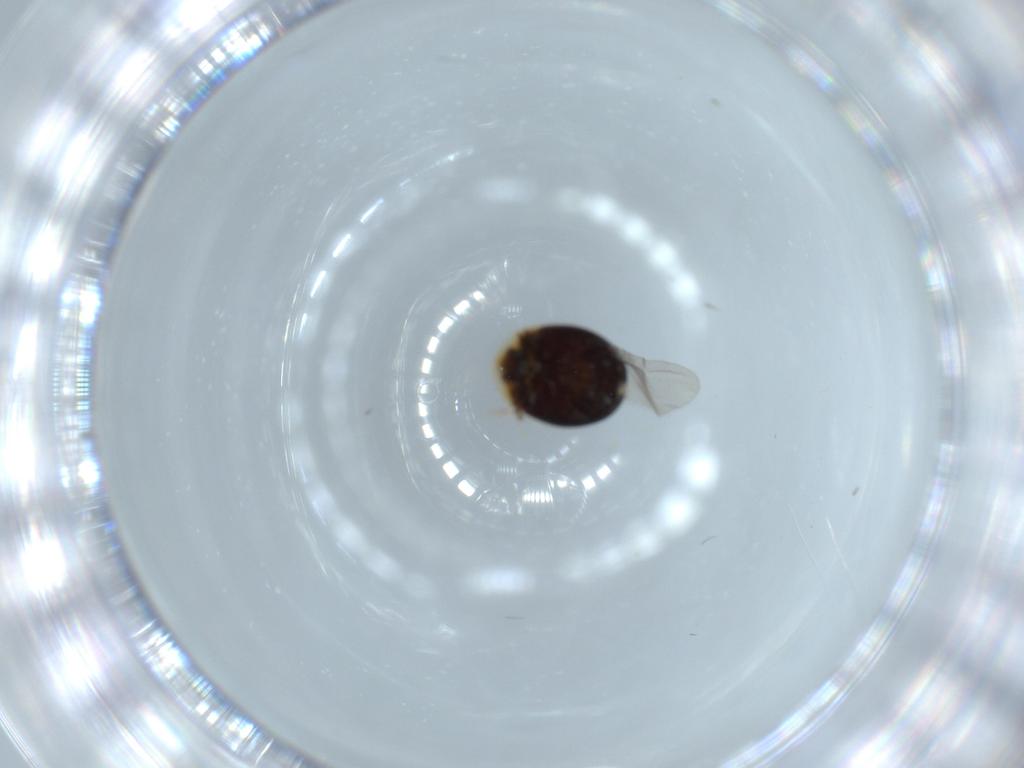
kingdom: Animalia
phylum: Arthropoda
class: Insecta
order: Coleoptera
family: Corylophidae
